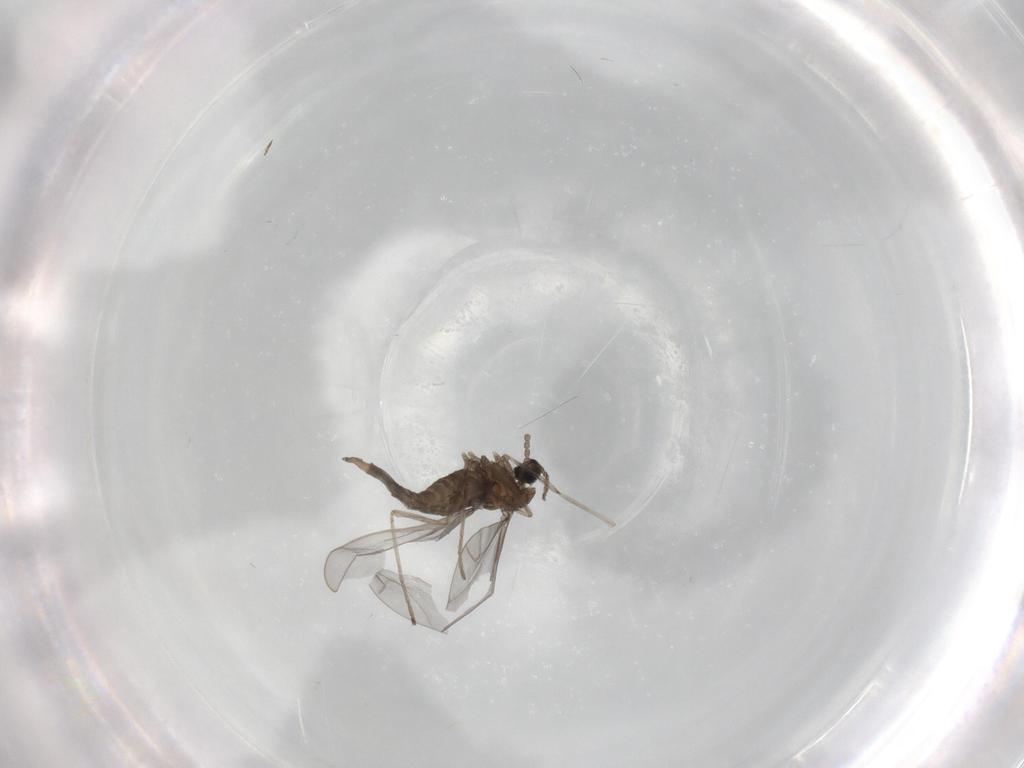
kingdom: Animalia
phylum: Arthropoda
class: Insecta
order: Diptera
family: Cecidomyiidae
